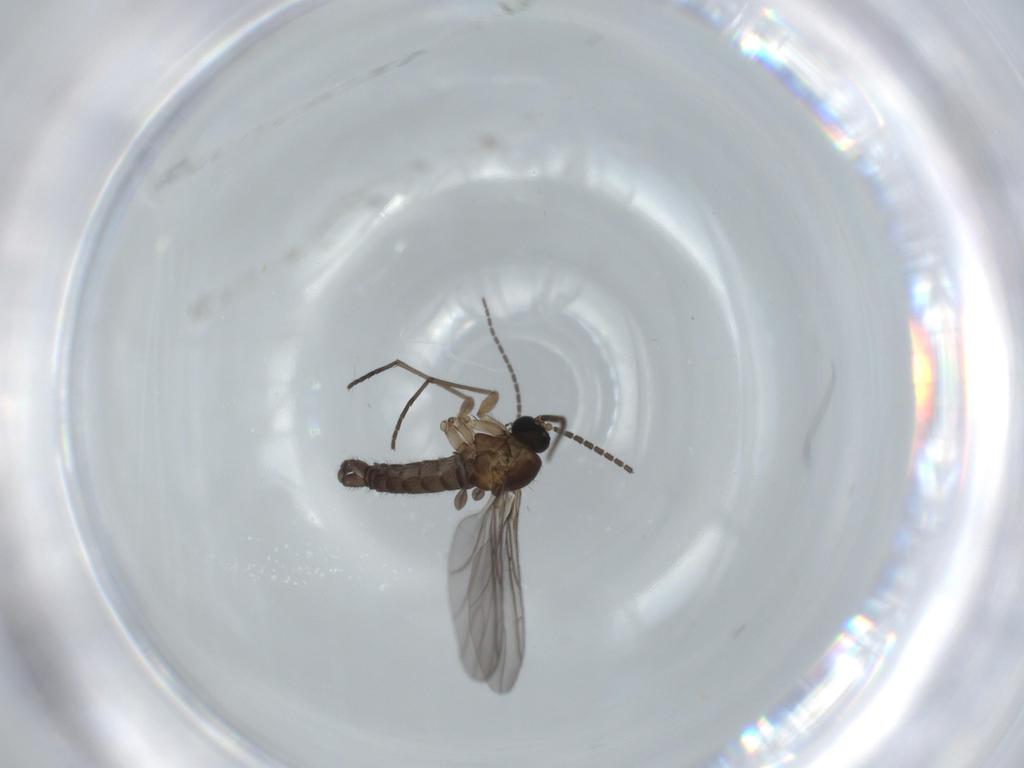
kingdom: Animalia
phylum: Arthropoda
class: Insecta
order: Diptera
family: Sciaridae
